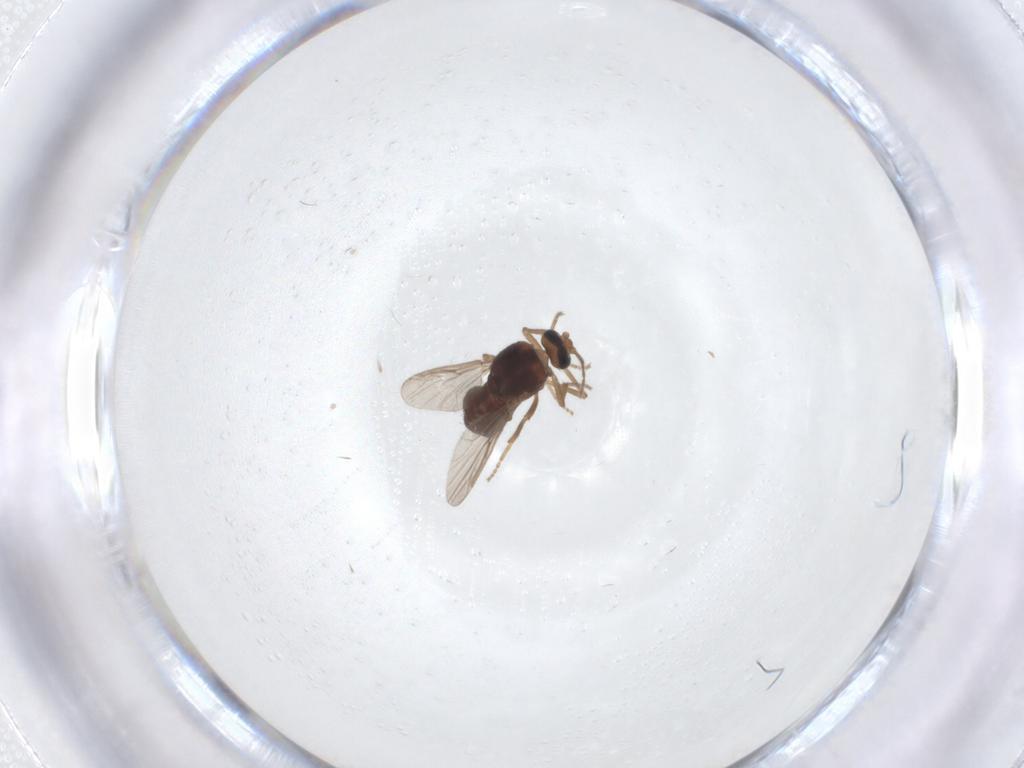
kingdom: Animalia
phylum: Arthropoda
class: Insecta
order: Diptera
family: Ceratopogonidae
